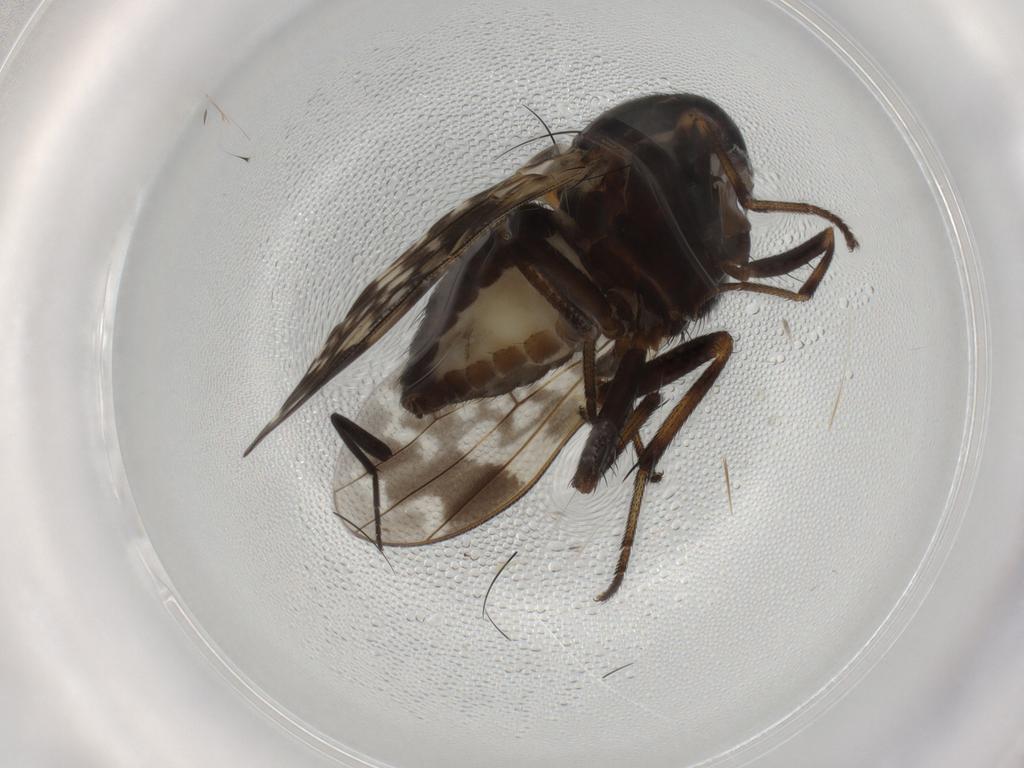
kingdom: Animalia
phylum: Arthropoda
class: Insecta
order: Diptera
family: Lauxaniidae
